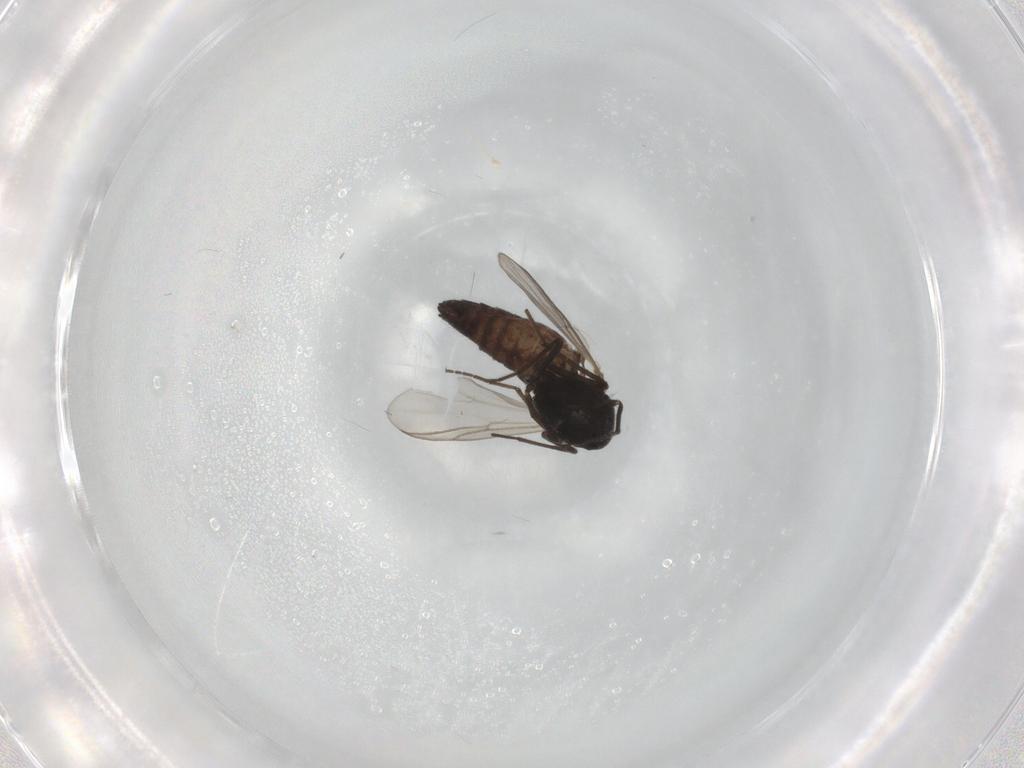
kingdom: Animalia
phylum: Arthropoda
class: Insecta
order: Diptera
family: Chironomidae
